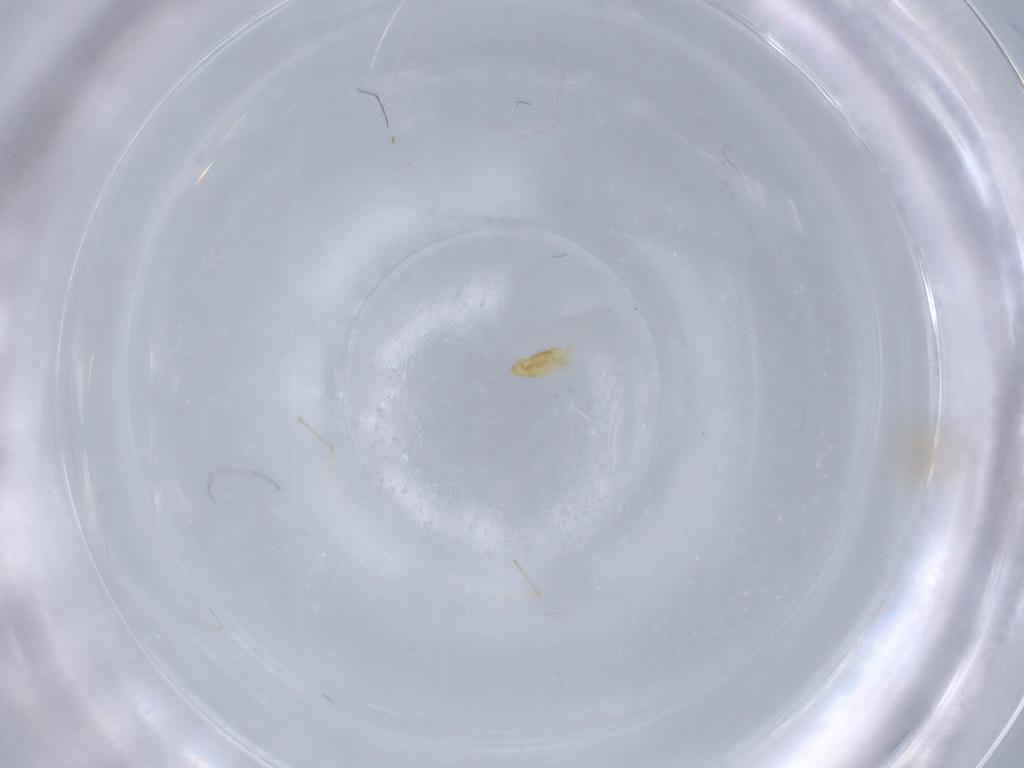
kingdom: Animalia
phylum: Arthropoda
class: Insecta
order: Diptera
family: Chironomidae
